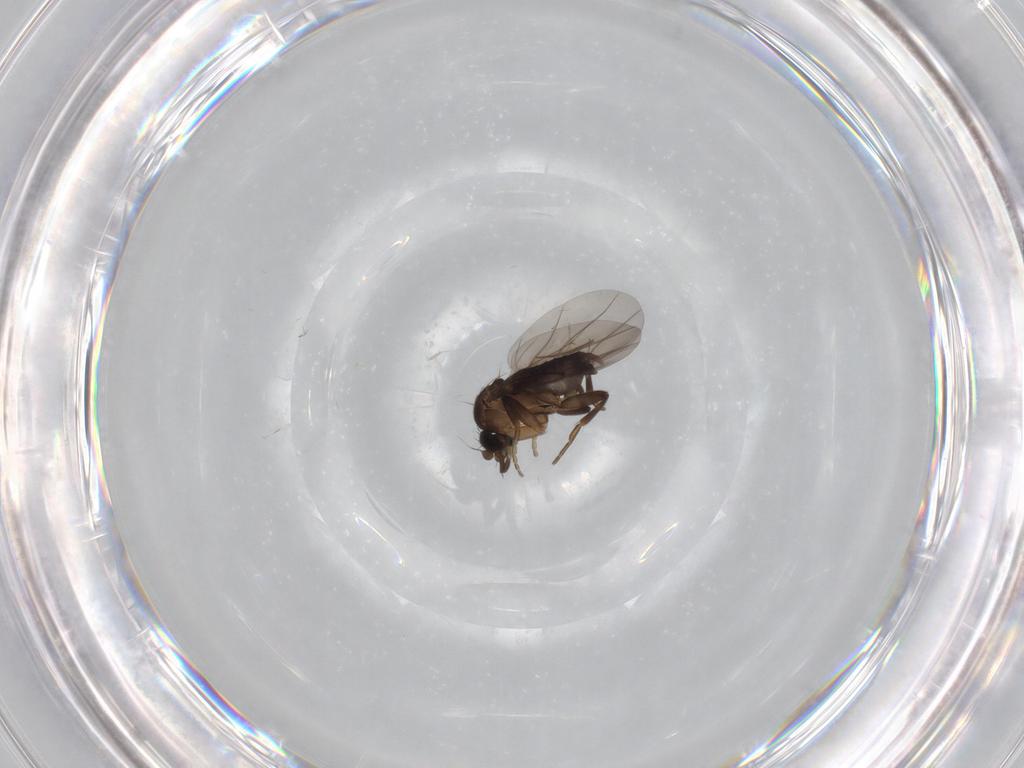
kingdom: Animalia
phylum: Arthropoda
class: Insecta
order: Diptera
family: Phoridae
